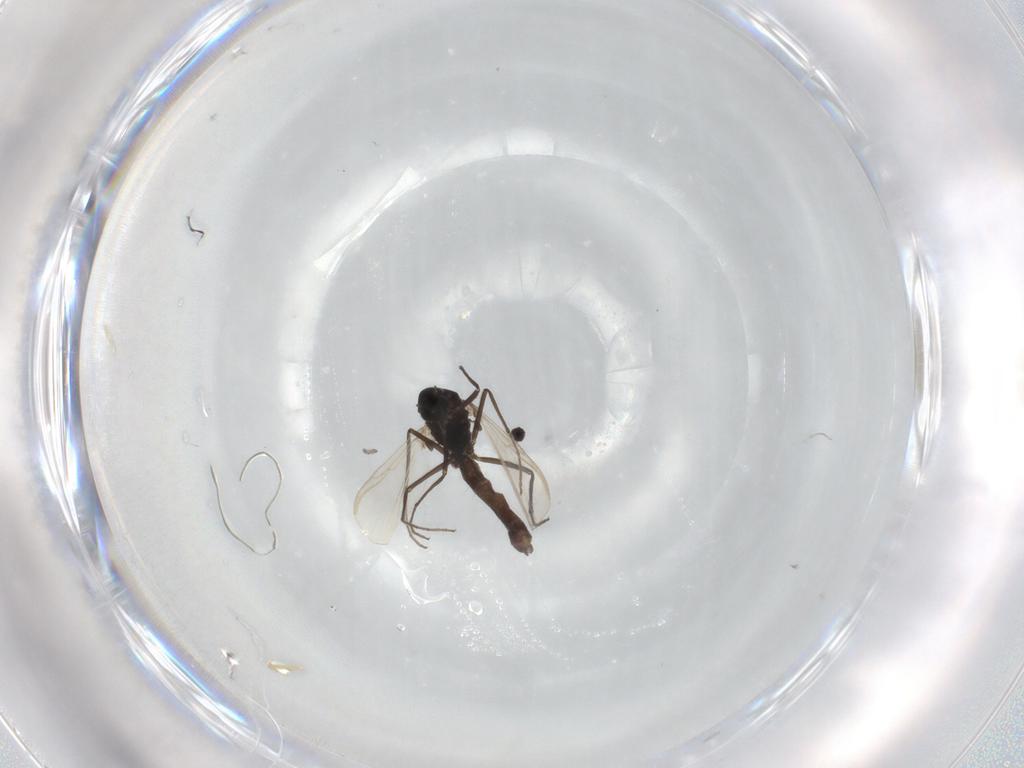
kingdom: Animalia
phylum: Arthropoda
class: Insecta
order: Diptera
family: Chironomidae
